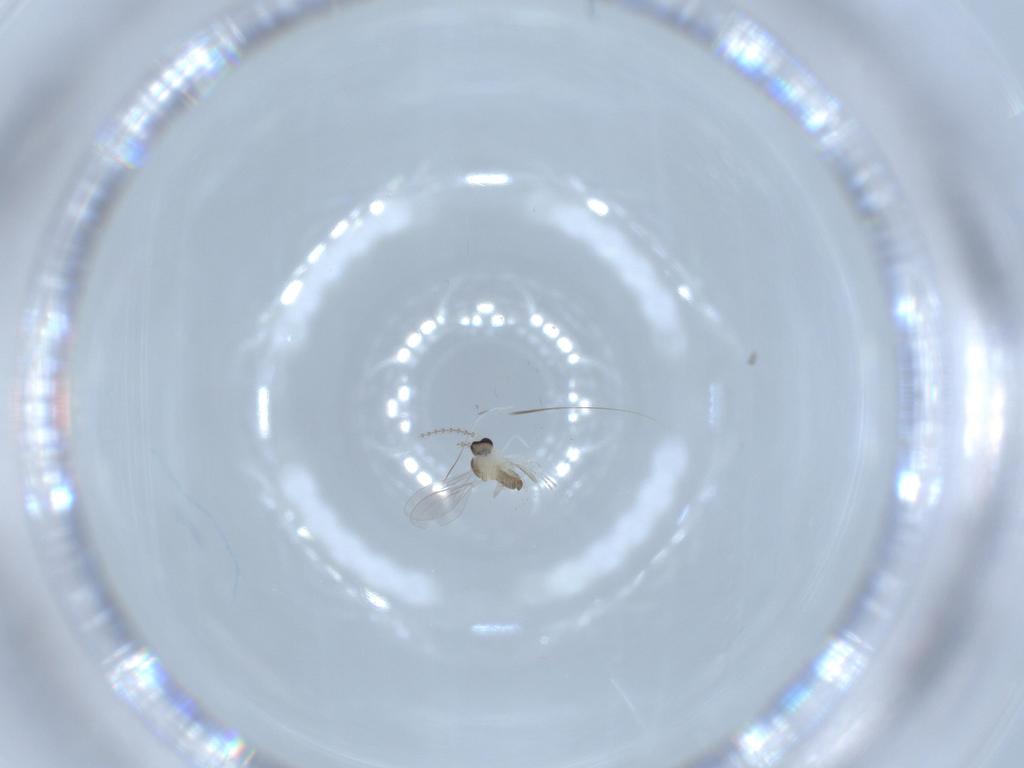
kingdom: Animalia
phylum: Arthropoda
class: Insecta
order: Diptera
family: Cecidomyiidae
